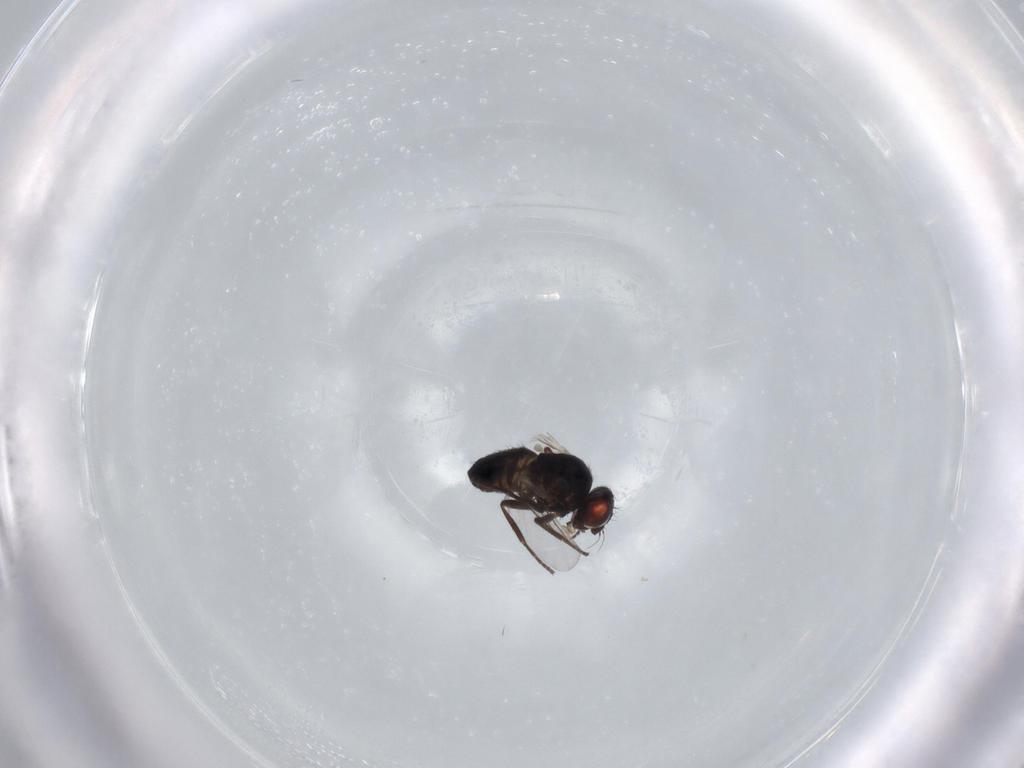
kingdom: Animalia
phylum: Arthropoda
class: Insecta
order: Diptera
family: Agromyzidae
